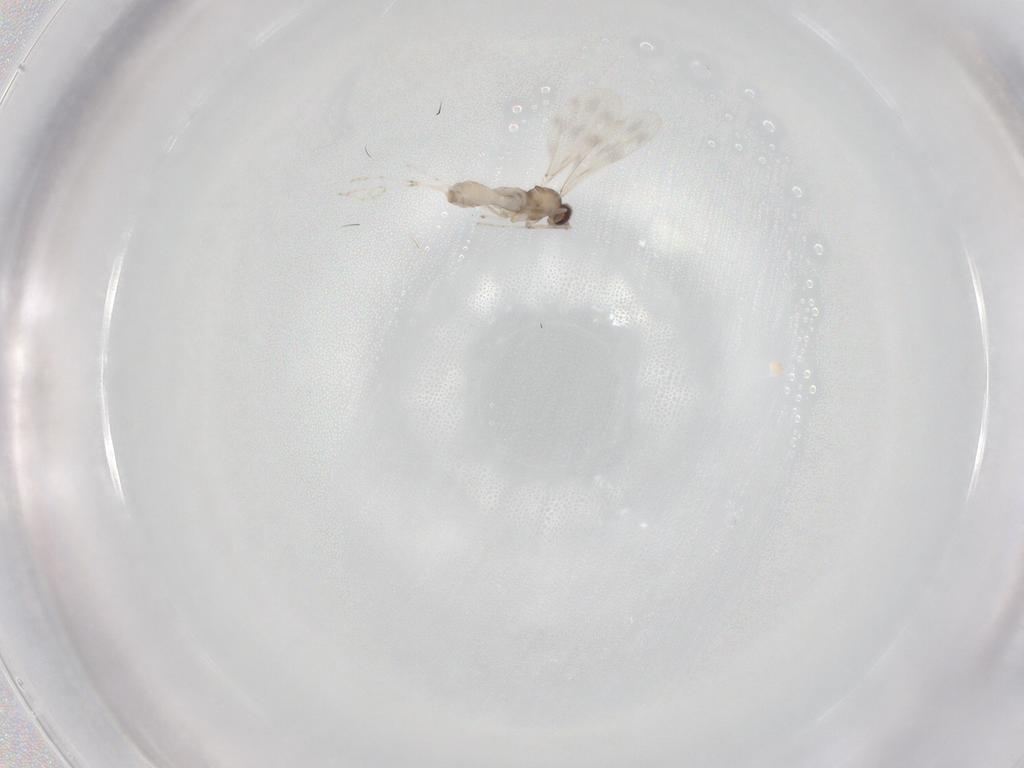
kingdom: Animalia
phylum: Arthropoda
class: Insecta
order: Diptera
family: Cecidomyiidae
